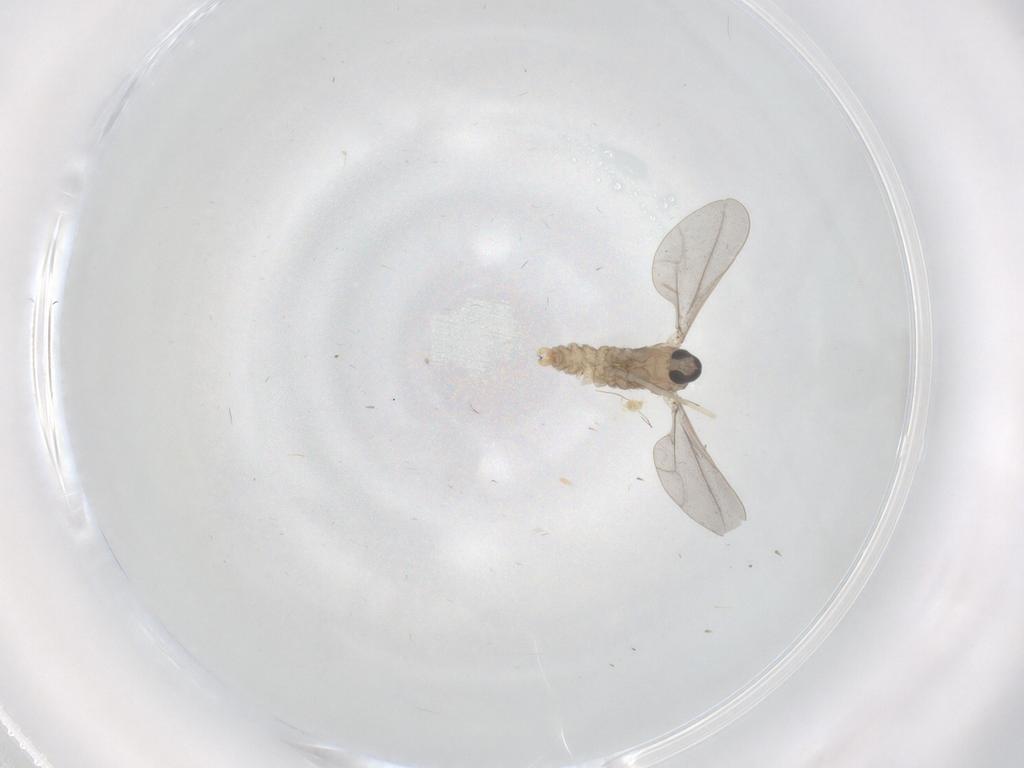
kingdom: Animalia
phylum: Arthropoda
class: Insecta
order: Diptera
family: Cecidomyiidae
